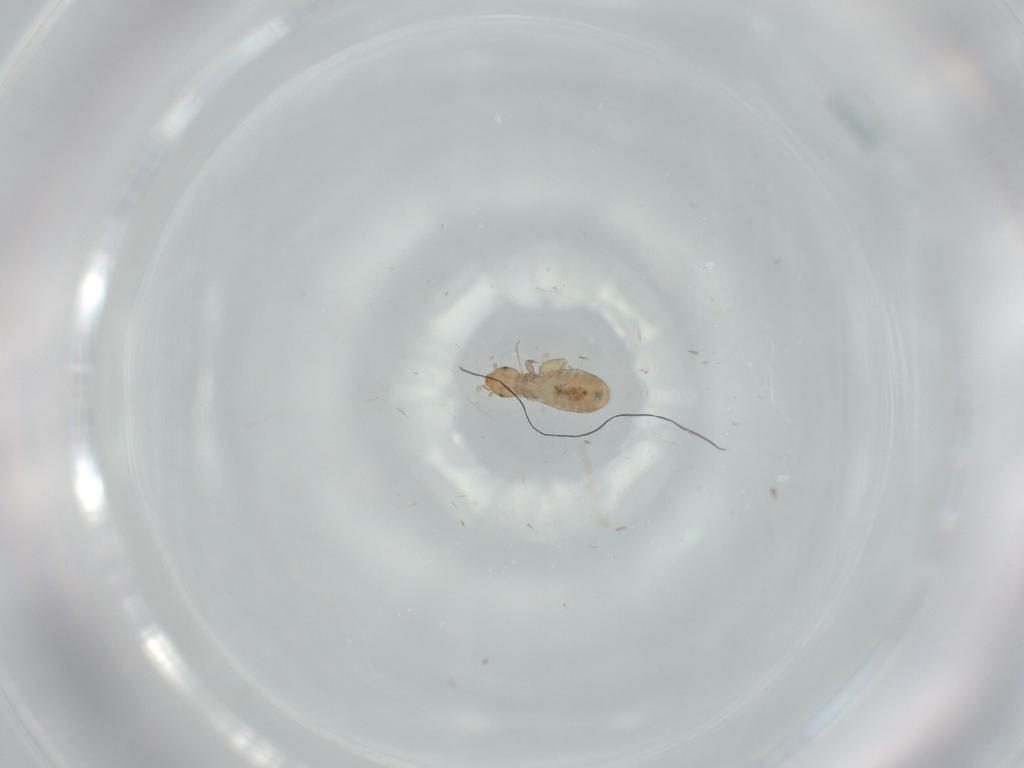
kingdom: Animalia
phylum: Arthropoda
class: Insecta
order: Psocodea
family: Liposcelididae
